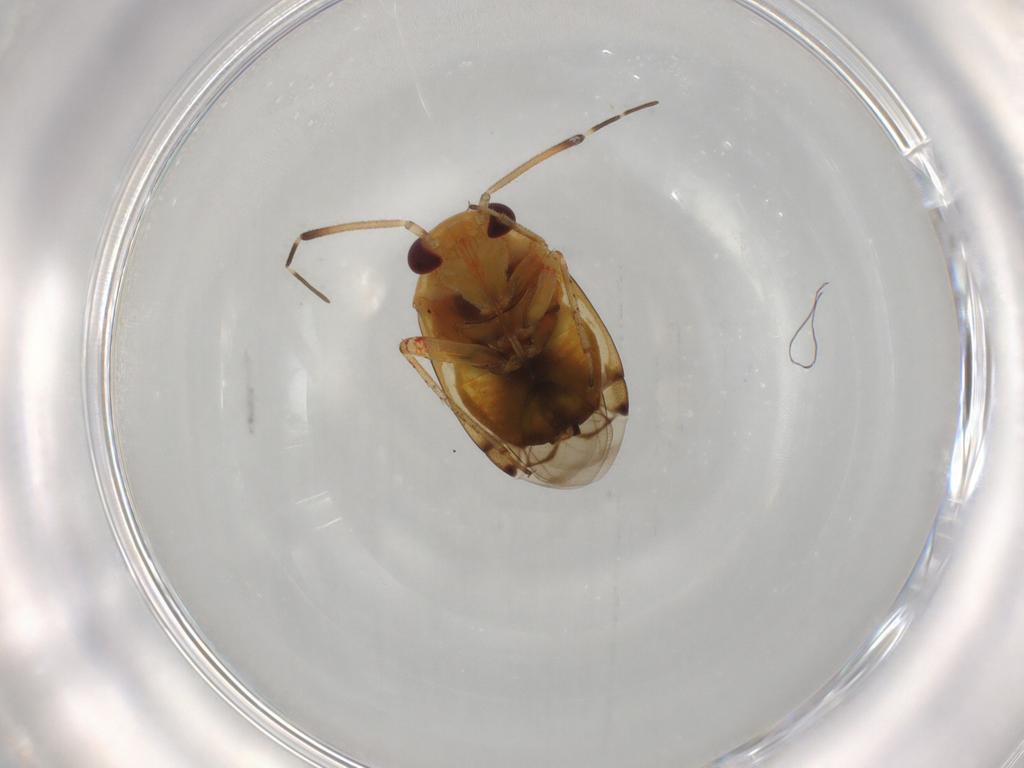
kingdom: Animalia
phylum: Arthropoda
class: Insecta
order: Hemiptera
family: Miridae
